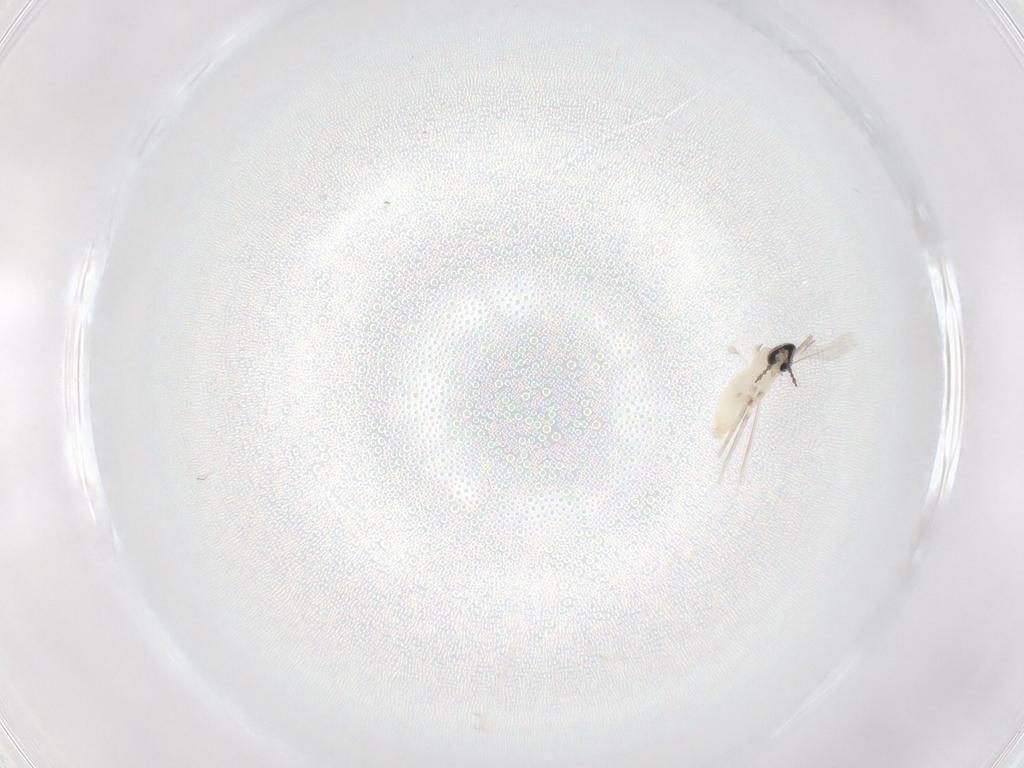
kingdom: Animalia
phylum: Arthropoda
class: Insecta
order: Diptera
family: Cecidomyiidae
